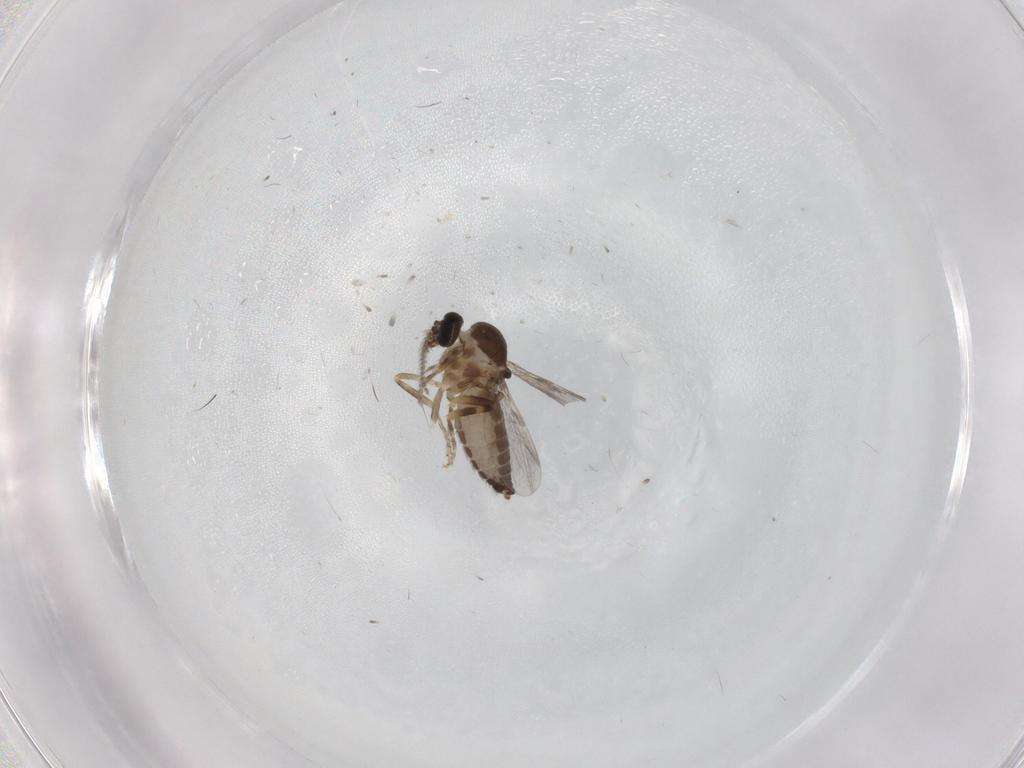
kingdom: Animalia
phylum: Arthropoda
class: Insecta
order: Diptera
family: Ceratopogonidae
